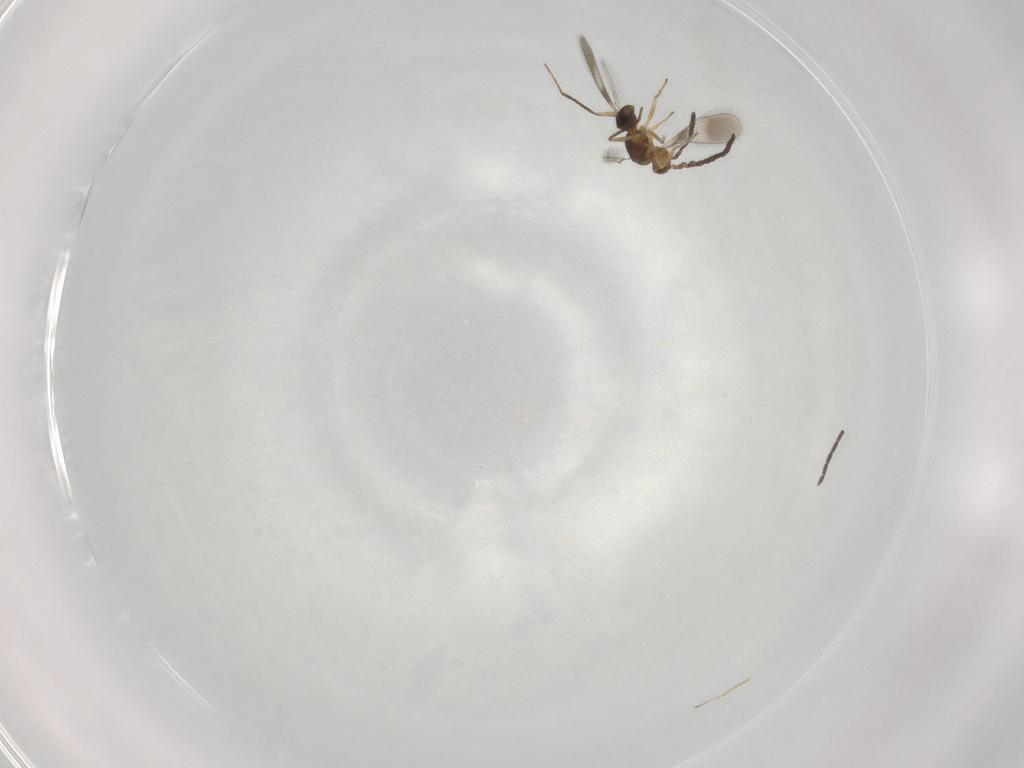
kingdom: Animalia
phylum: Arthropoda
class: Insecta
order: Hymenoptera
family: Mymaridae
